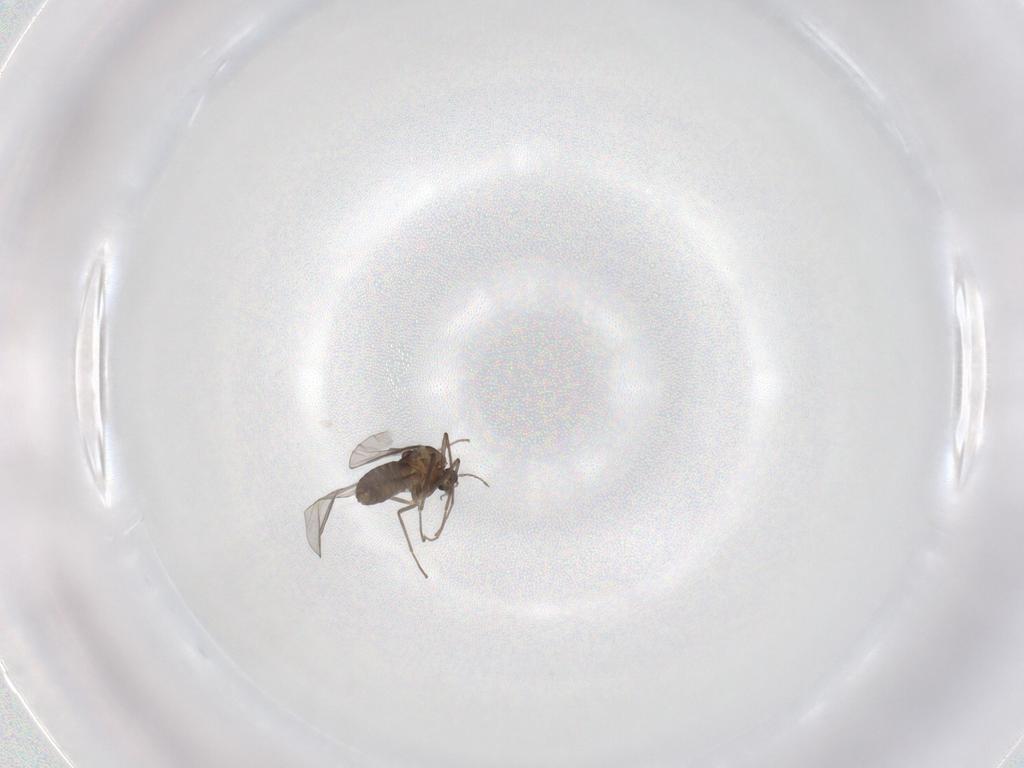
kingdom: Animalia
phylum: Arthropoda
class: Insecta
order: Diptera
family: Chironomidae
